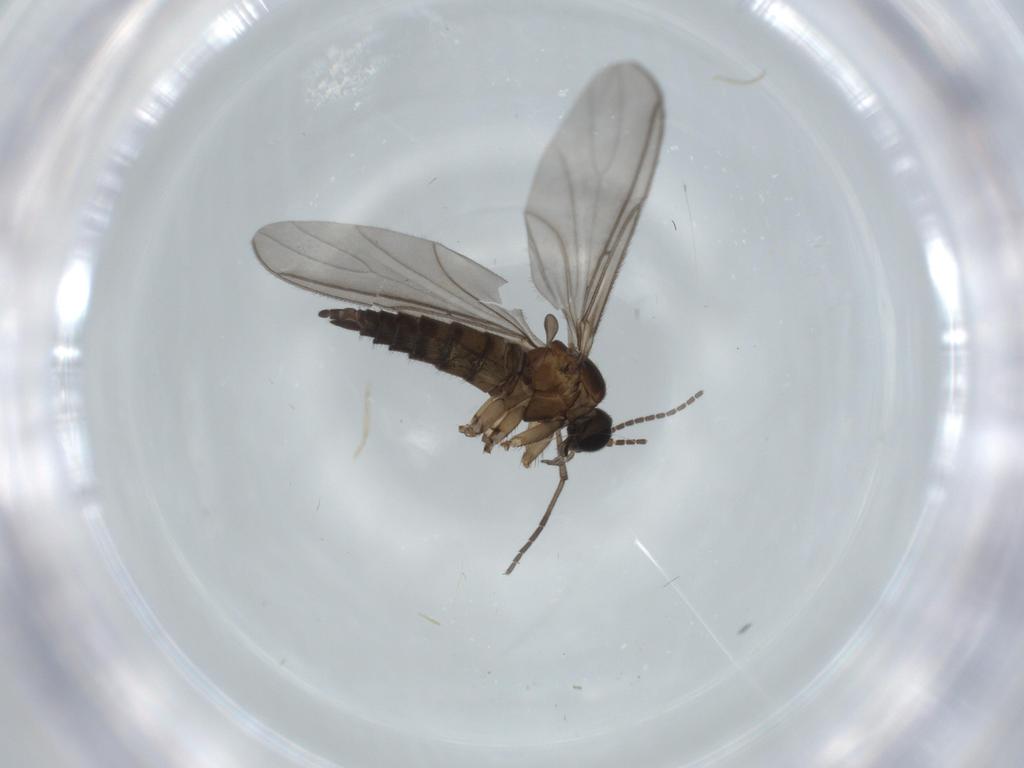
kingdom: Animalia
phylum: Arthropoda
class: Insecta
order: Diptera
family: Sciaridae
